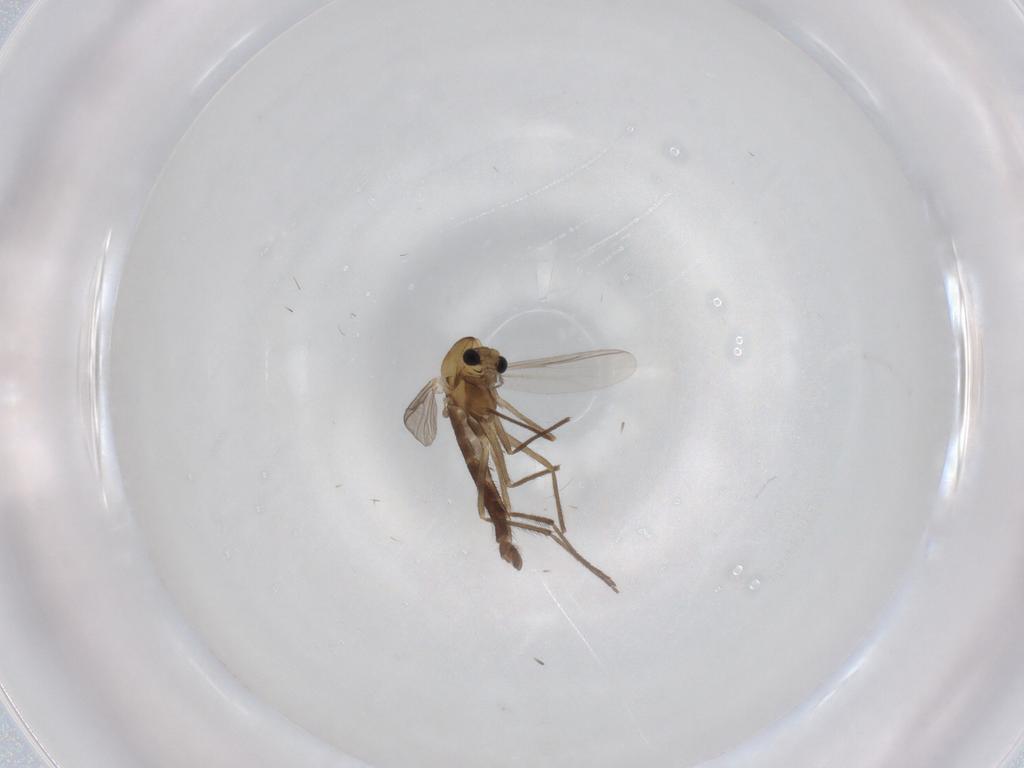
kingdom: Animalia
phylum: Arthropoda
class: Insecta
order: Diptera
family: Chironomidae
